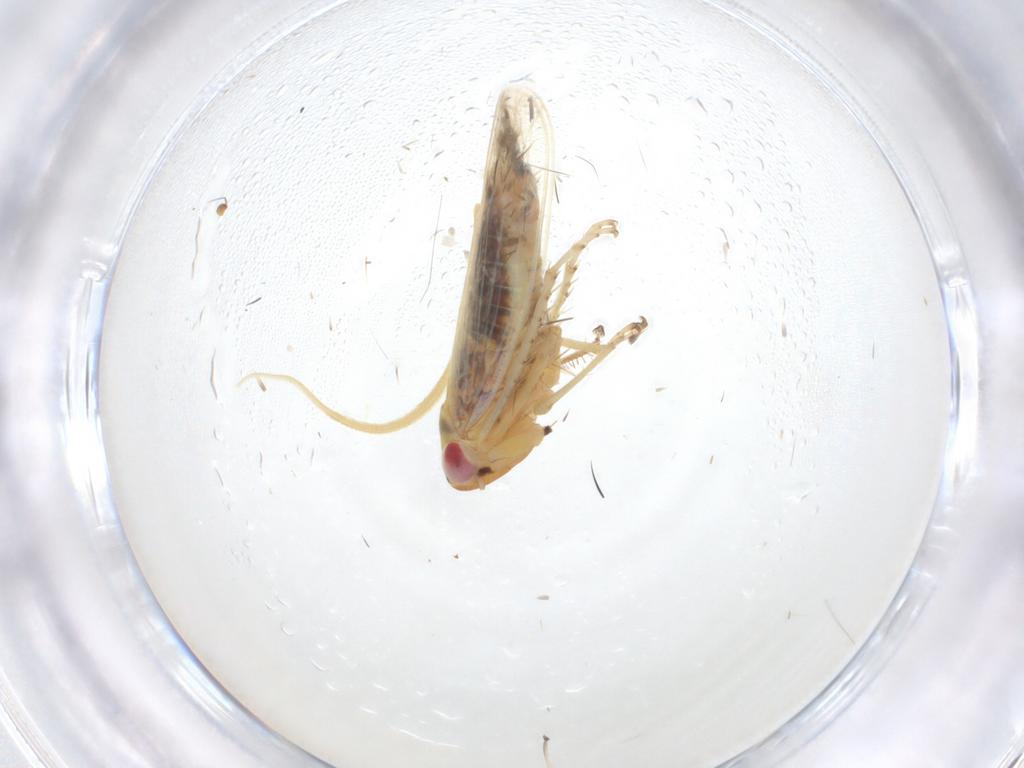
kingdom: Animalia
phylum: Arthropoda
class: Insecta
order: Hemiptera
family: Cicadellidae
